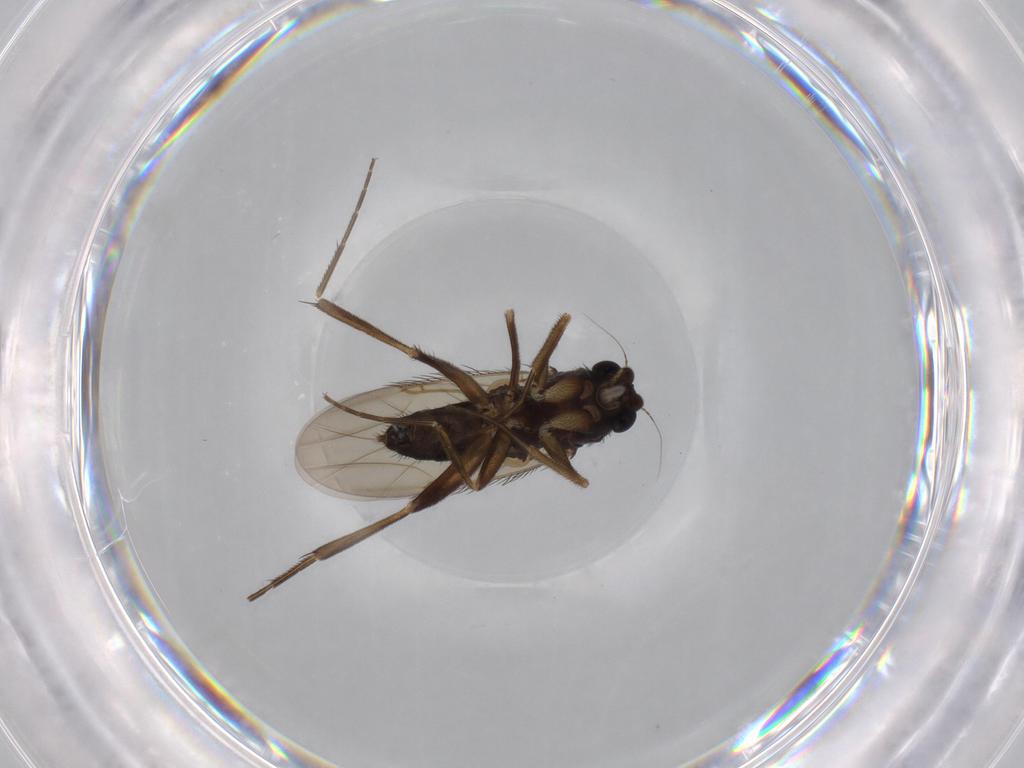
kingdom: Animalia
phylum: Arthropoda
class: Insecta
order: Diptera
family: Phoridae
